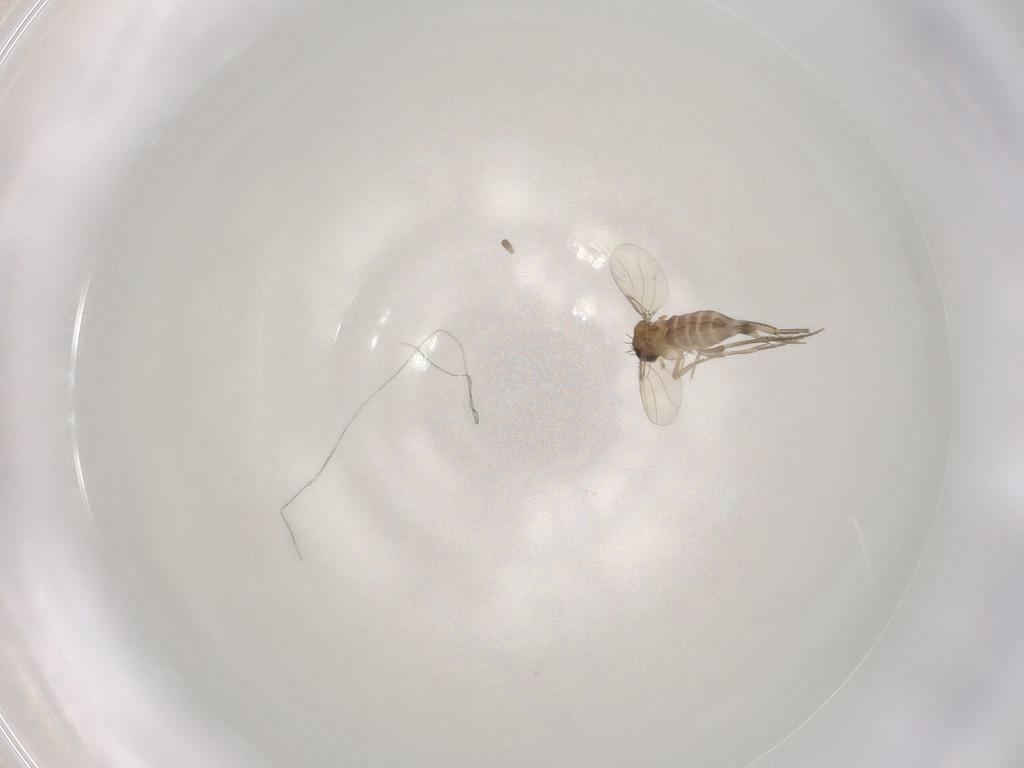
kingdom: Animalia
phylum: Arthropoda
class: Insecta
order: Diptera
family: Phoridae
